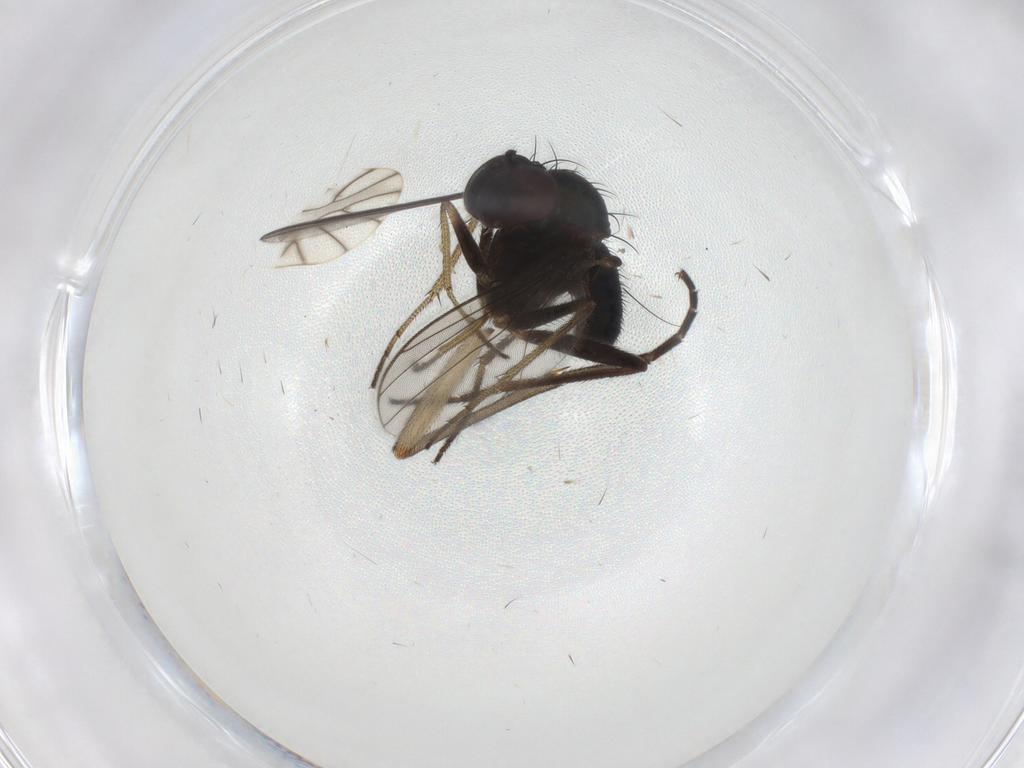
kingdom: Animalia
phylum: Arthropoda
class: Insecta
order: Diptera
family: Sciaridae
